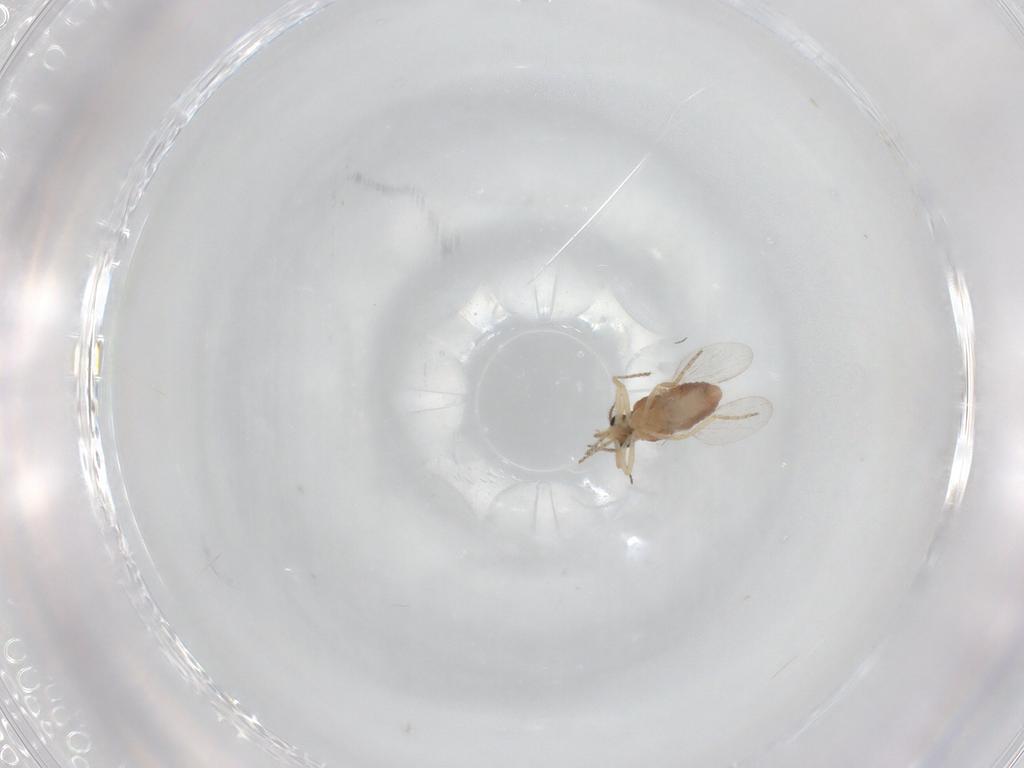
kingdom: Animalia
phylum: Arthropoda
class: Insecta
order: Diptera
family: Ceratopogonidae
